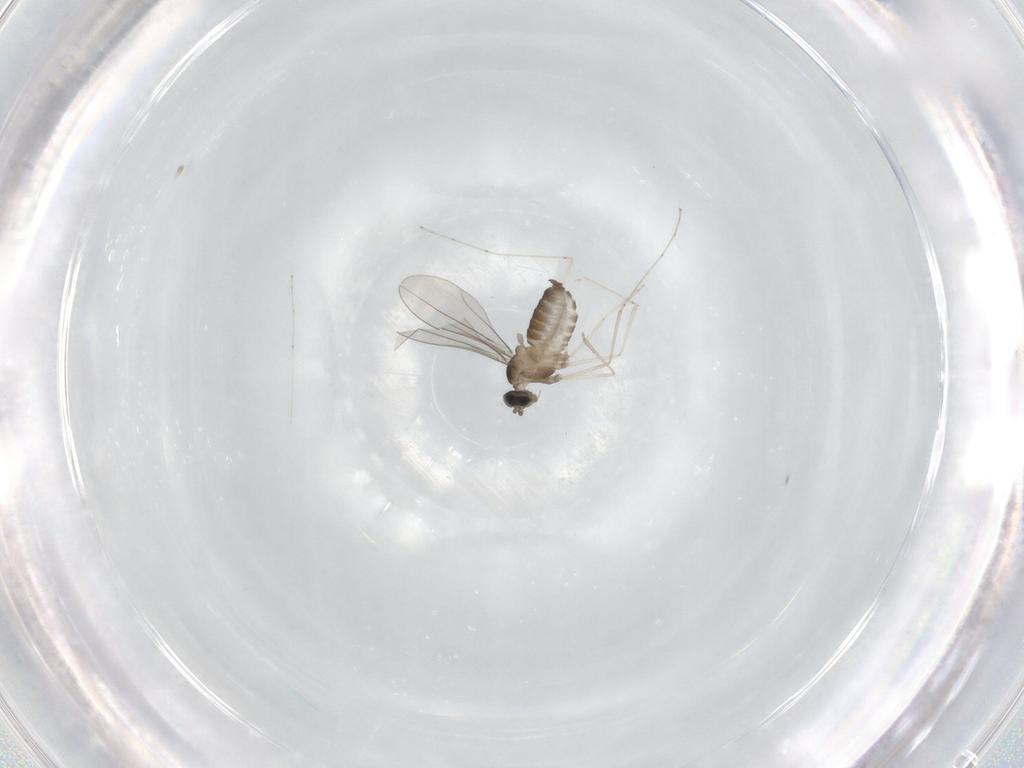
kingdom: Animalia
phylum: Arthropoda
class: Insecta
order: Diptera
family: Cecidomyiidae
